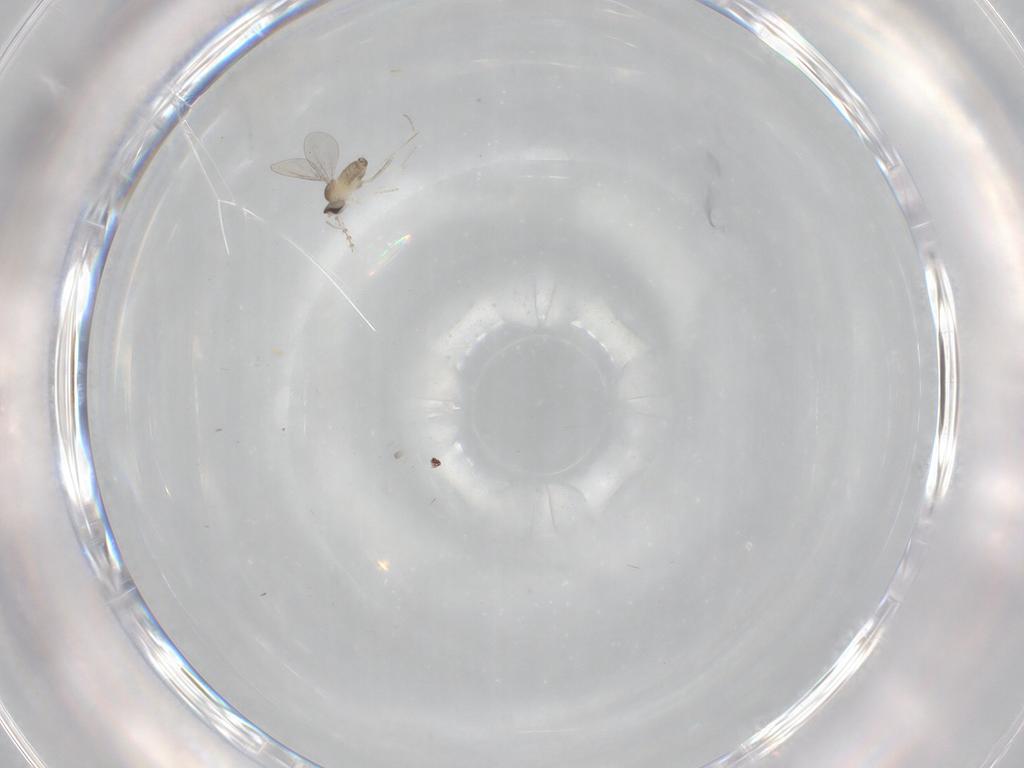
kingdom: Animalia
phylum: Arthropoda
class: Insecta
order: Diptera
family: Cecidomyiidae
